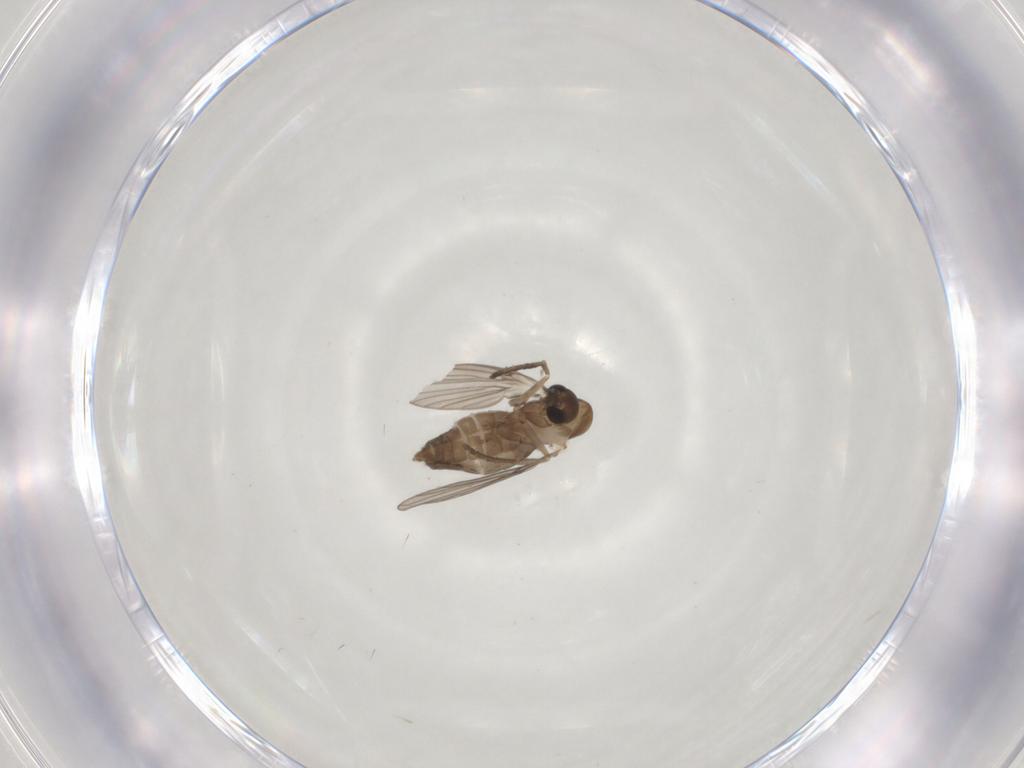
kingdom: Animalia
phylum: Arthropoda
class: Insecta
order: Diptera
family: Psychodidae
